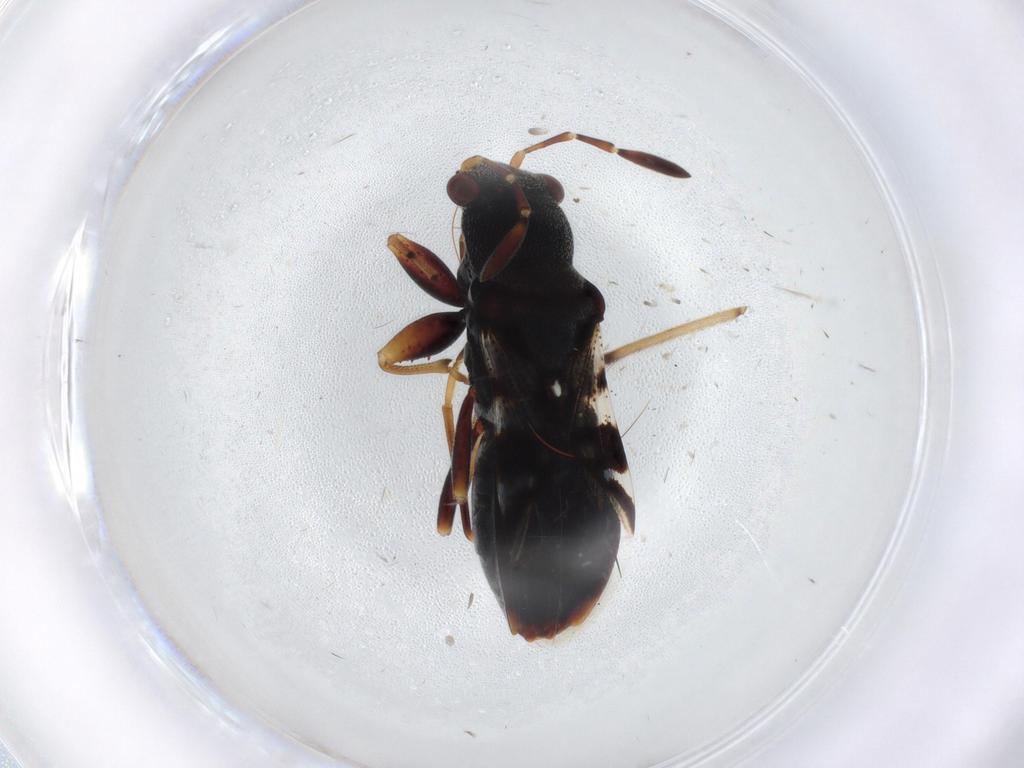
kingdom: Animalia
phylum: Arthropoda
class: Insecta
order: Hemiptera
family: Rhyparochromidae
